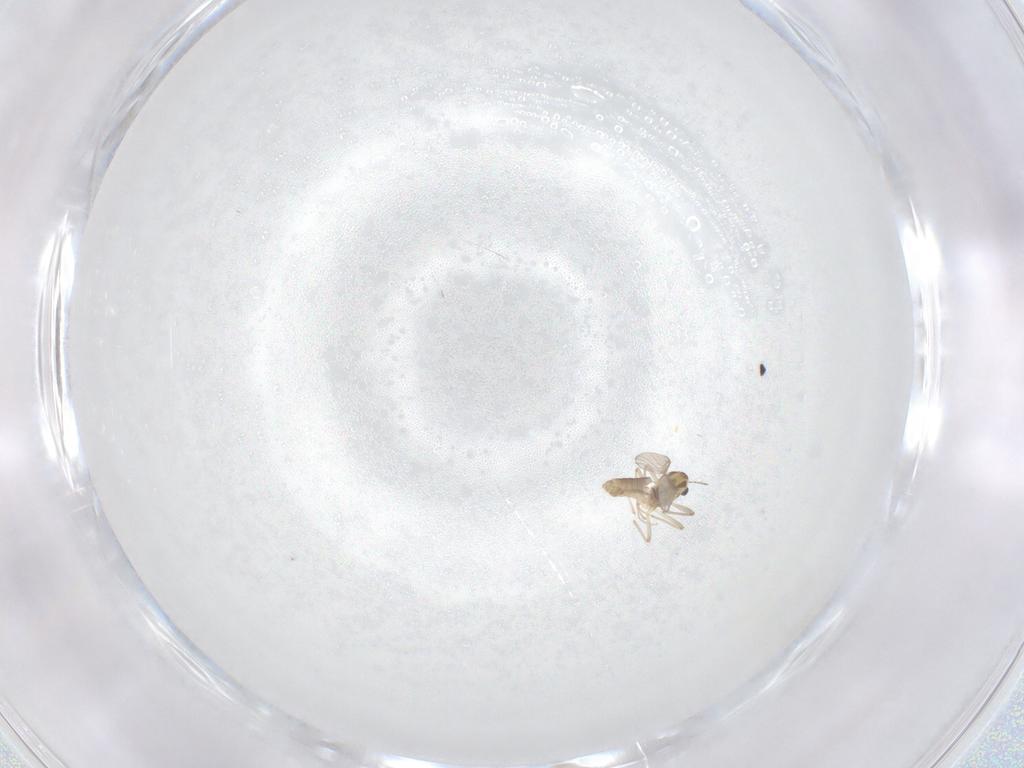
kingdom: Animalia
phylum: Arthropoda
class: Insecta
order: Diptera
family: Chironomidae
